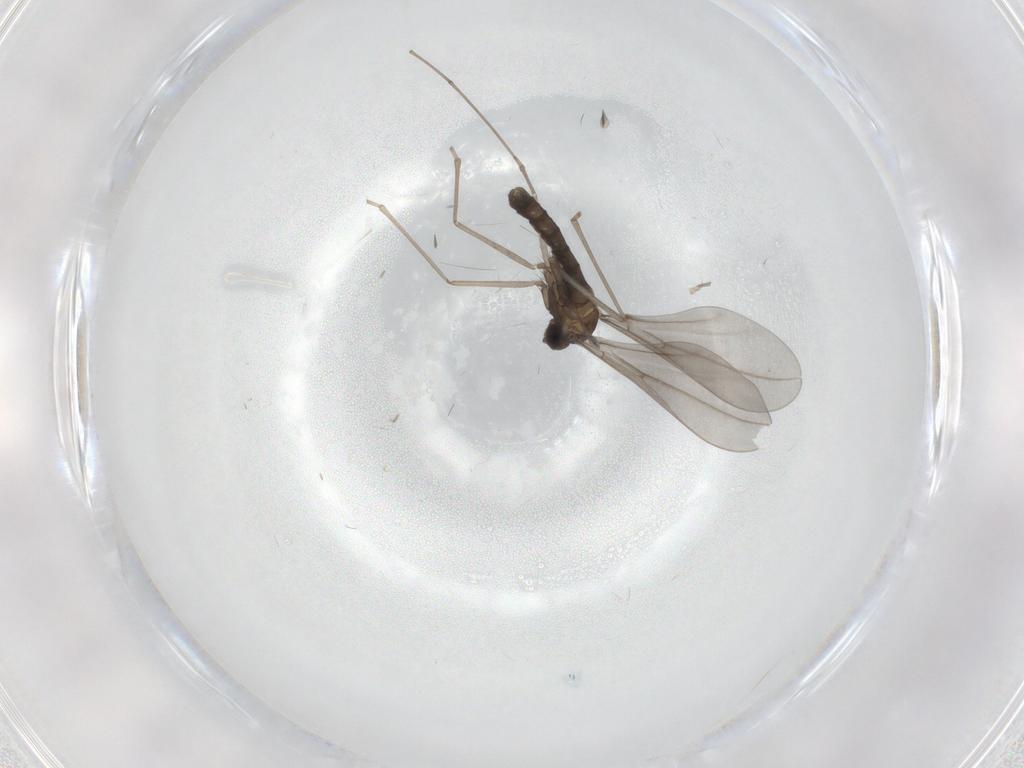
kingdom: Animalia
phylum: Arthropoda
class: Insecta
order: Diptera
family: Cecidomyiidae
